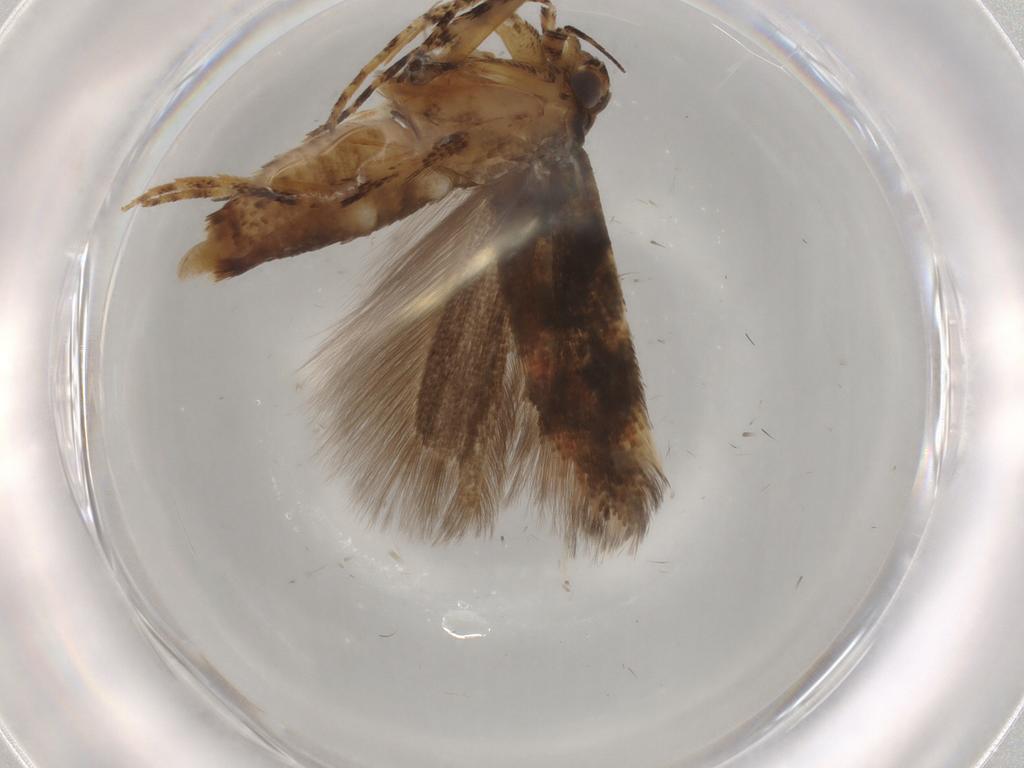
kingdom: Animalia
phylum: Arthropoda
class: Insecta
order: Lepidoptera
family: Gelechiidae
